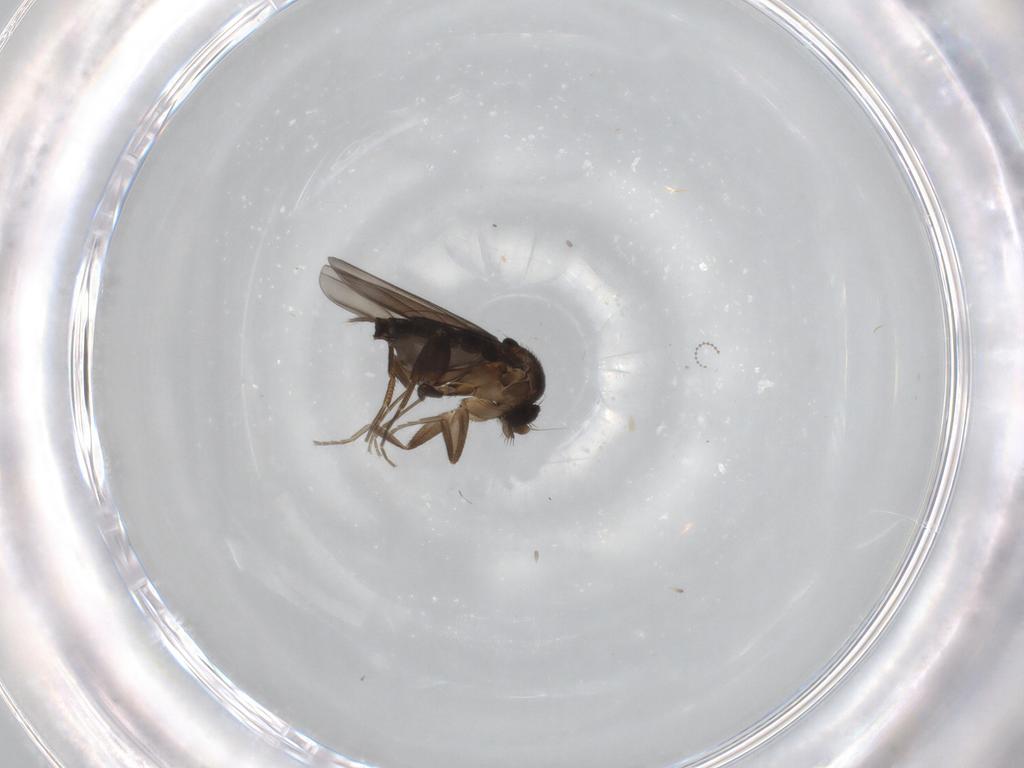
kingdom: Animalia
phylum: Arthropoda
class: Insecta
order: Diptera
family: Phoridae
